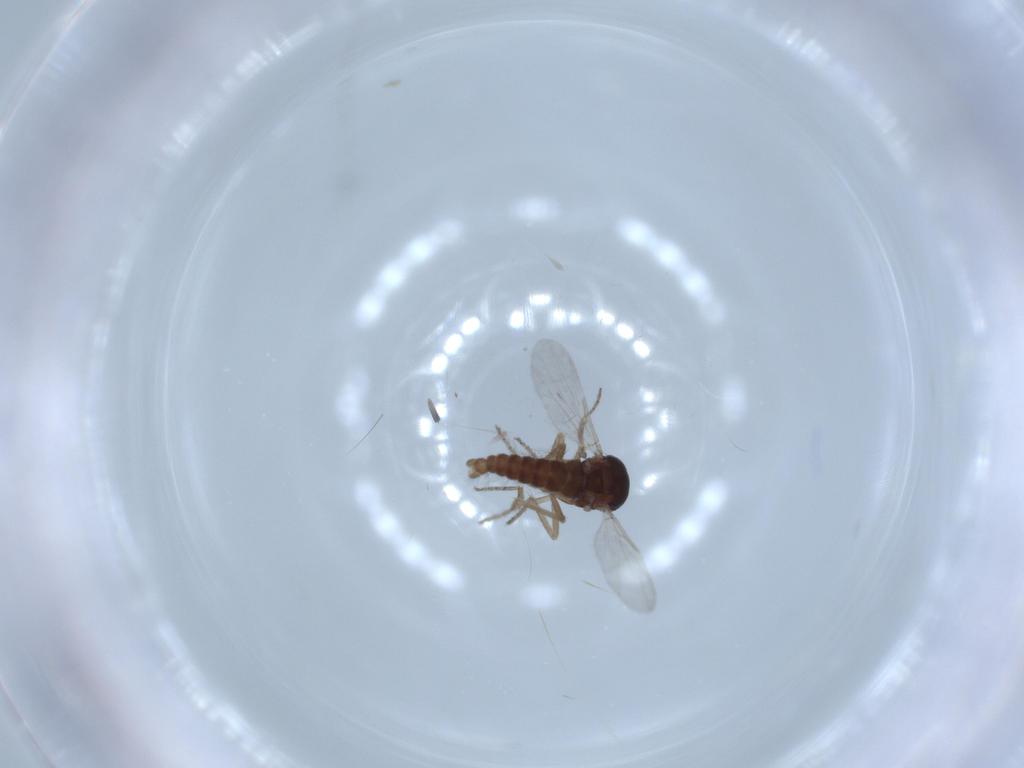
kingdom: Animalia
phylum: Arthropoda
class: Insecta
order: Diptera
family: Ceratopogonidae
